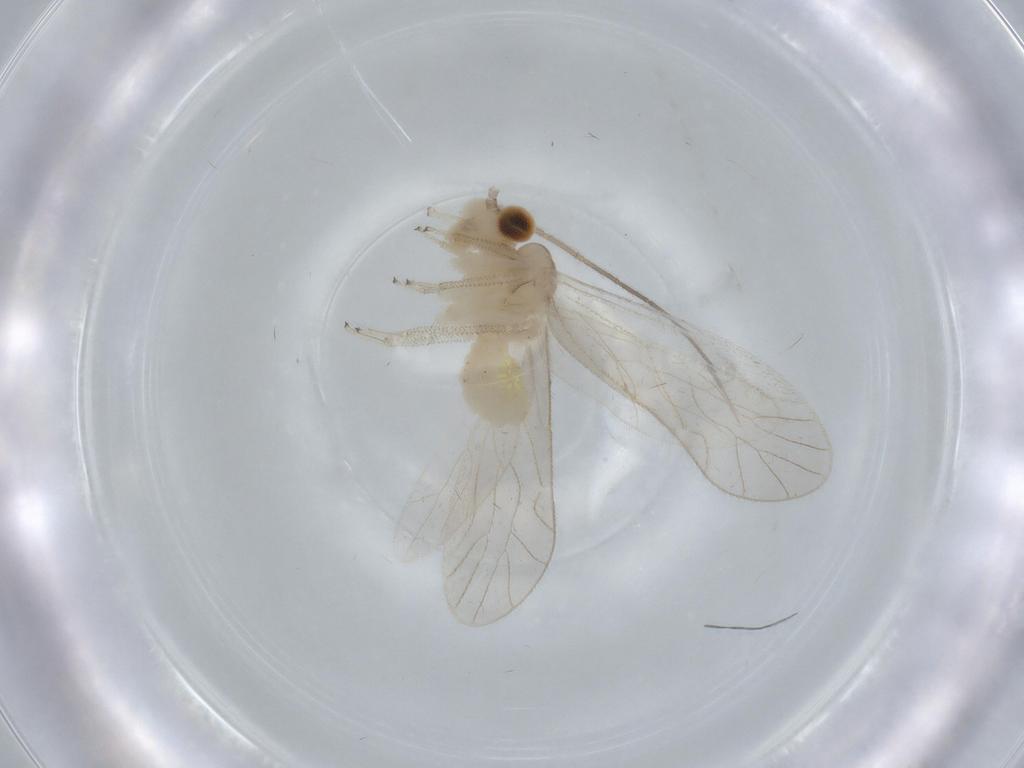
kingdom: Animalia
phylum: Arthropoda
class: Insecta
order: Psocodea
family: Caeciliusidae
